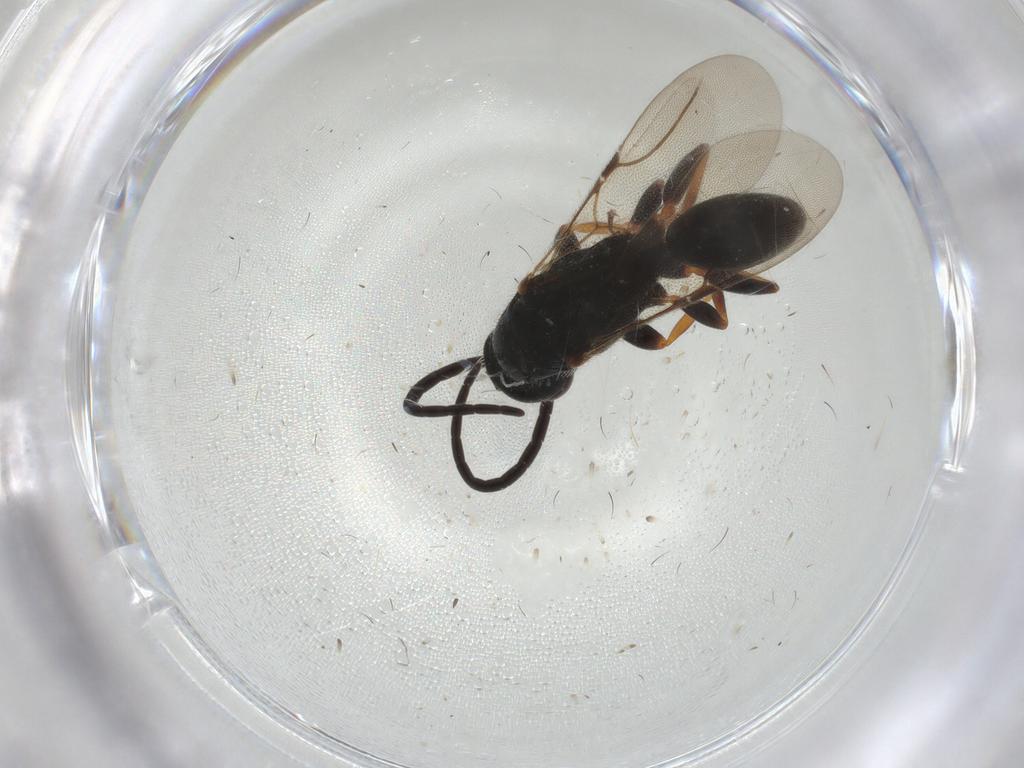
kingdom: Animalia
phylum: Arthropoda
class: Insecta
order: Hymenoptera
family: Bethylidae
